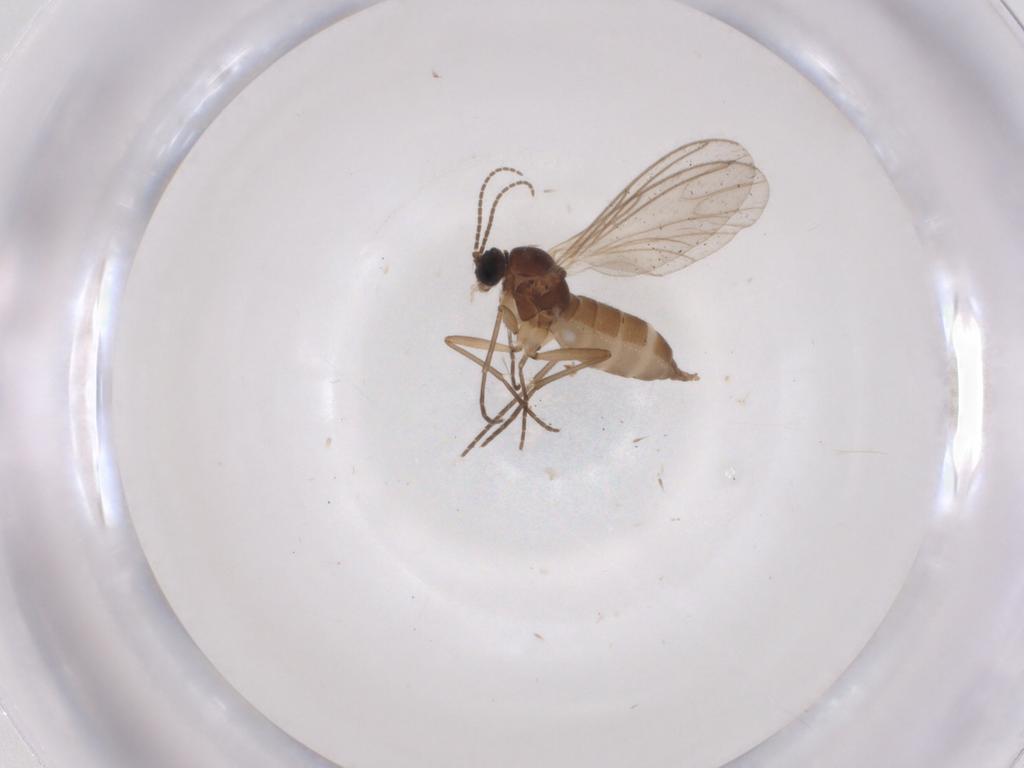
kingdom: Animalia
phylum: Arthropoda
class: Insecta
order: Diptera
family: Sciaridae
